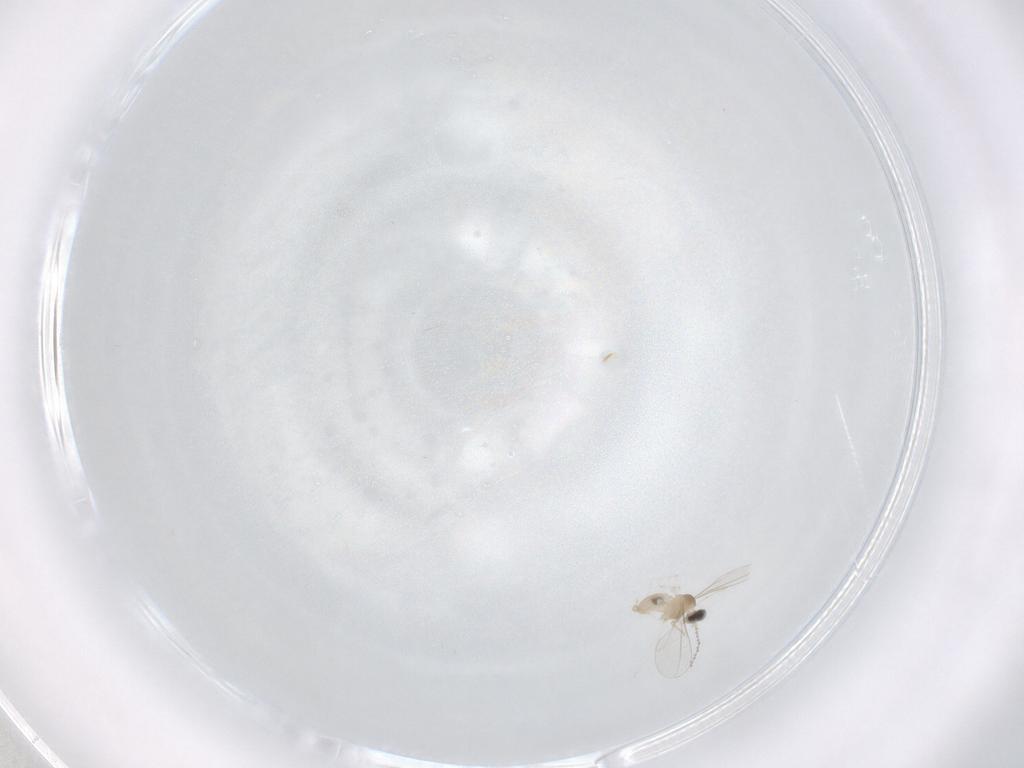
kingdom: Animalia
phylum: Arthropoda
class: Insecta
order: Diptera
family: Cecidomyiidae
